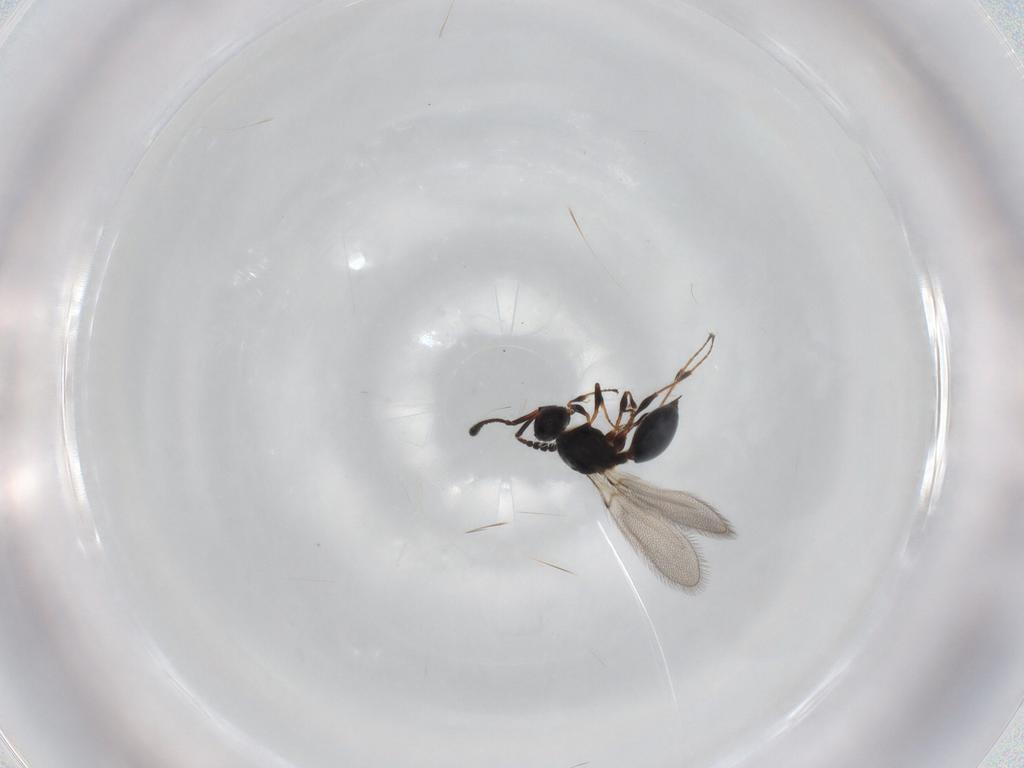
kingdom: Animalia
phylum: Arthropoda
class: Insecta
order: Hymenoptera
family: Diapriidae
